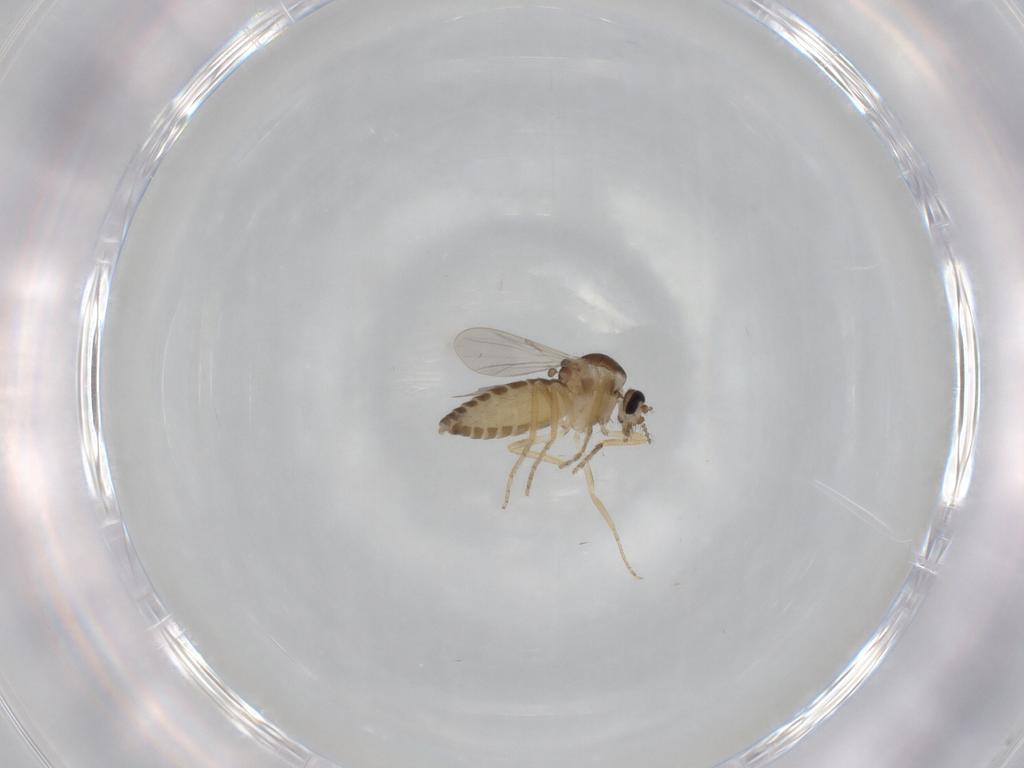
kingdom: Animalia
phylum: Arthropoda
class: Insecta
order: Diptera
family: Ceratopogonidae
